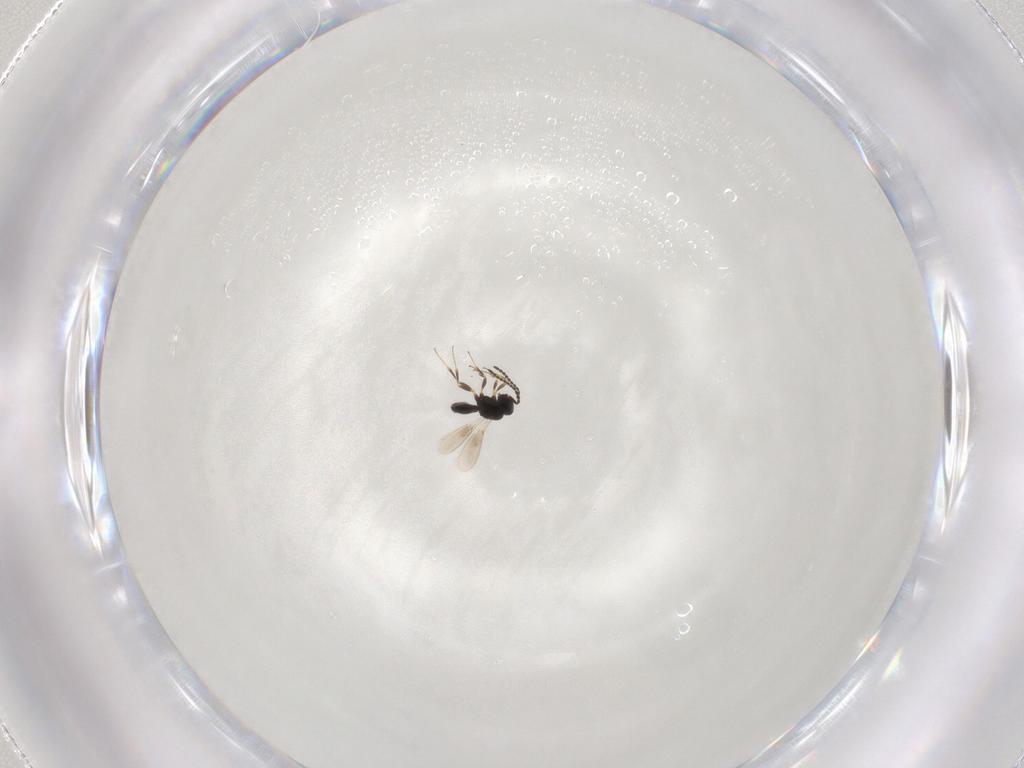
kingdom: Animalia
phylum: Arthropoda
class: Insecta
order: Hymenoptera
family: Scelionidae
